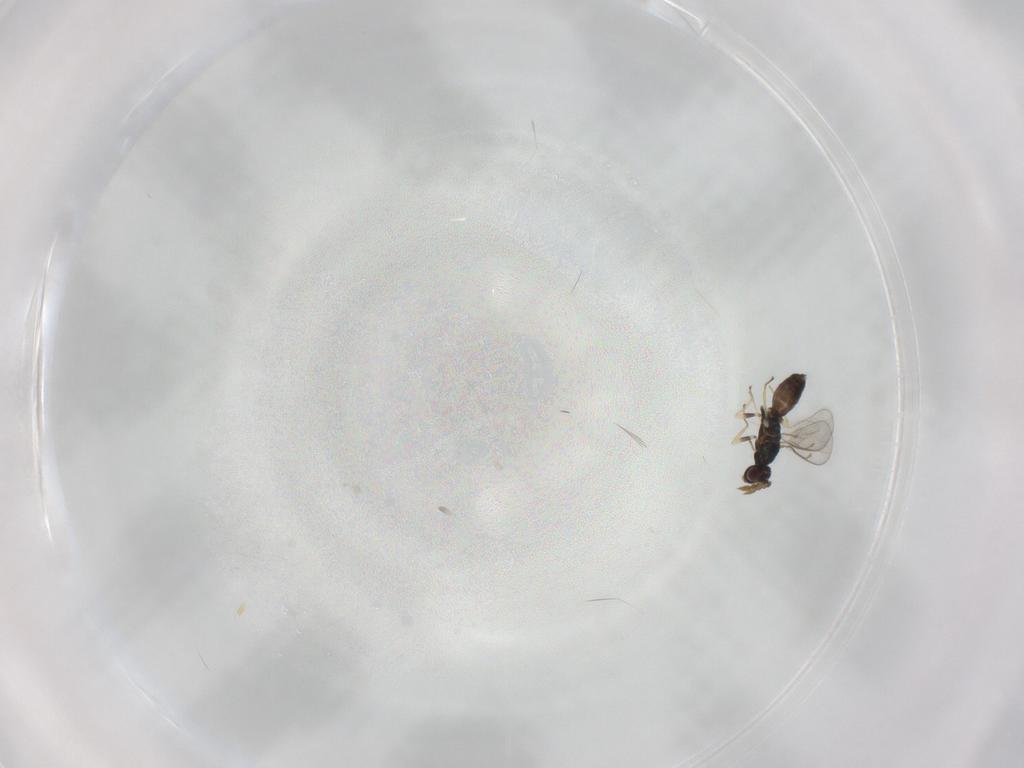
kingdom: Animalia
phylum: Arthropoda
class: Insecta
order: Hymenoptera
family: Eulophidae
